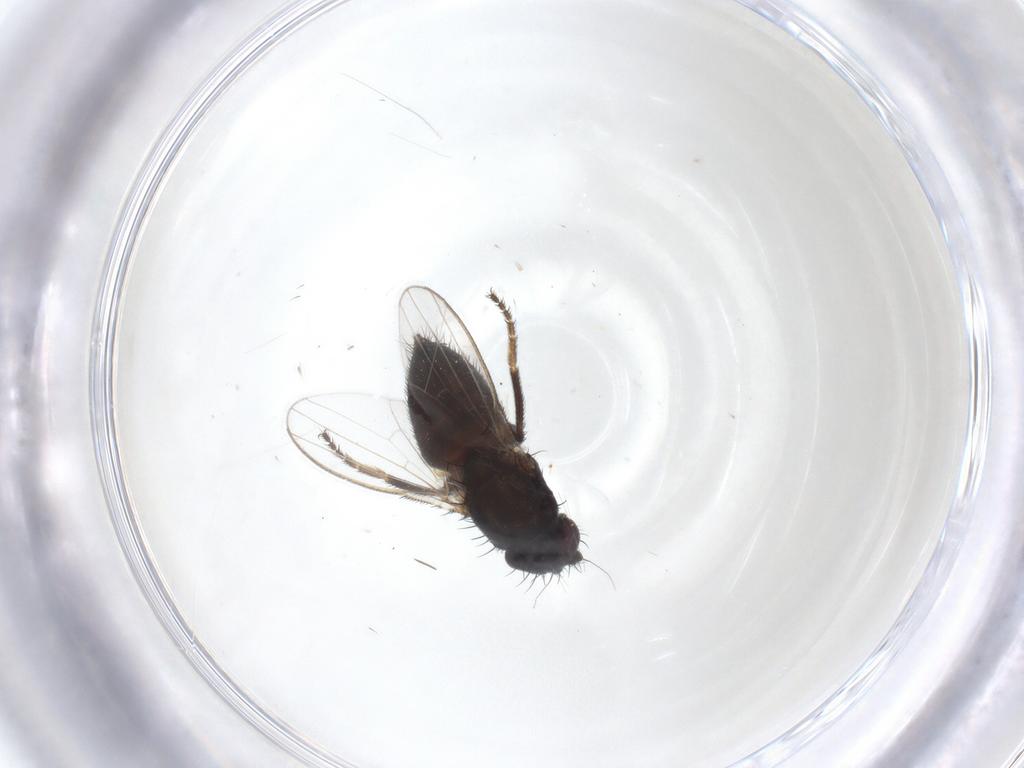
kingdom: Animalia
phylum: Arthropoda
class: Insecta
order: Diptera
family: Milichiidae
